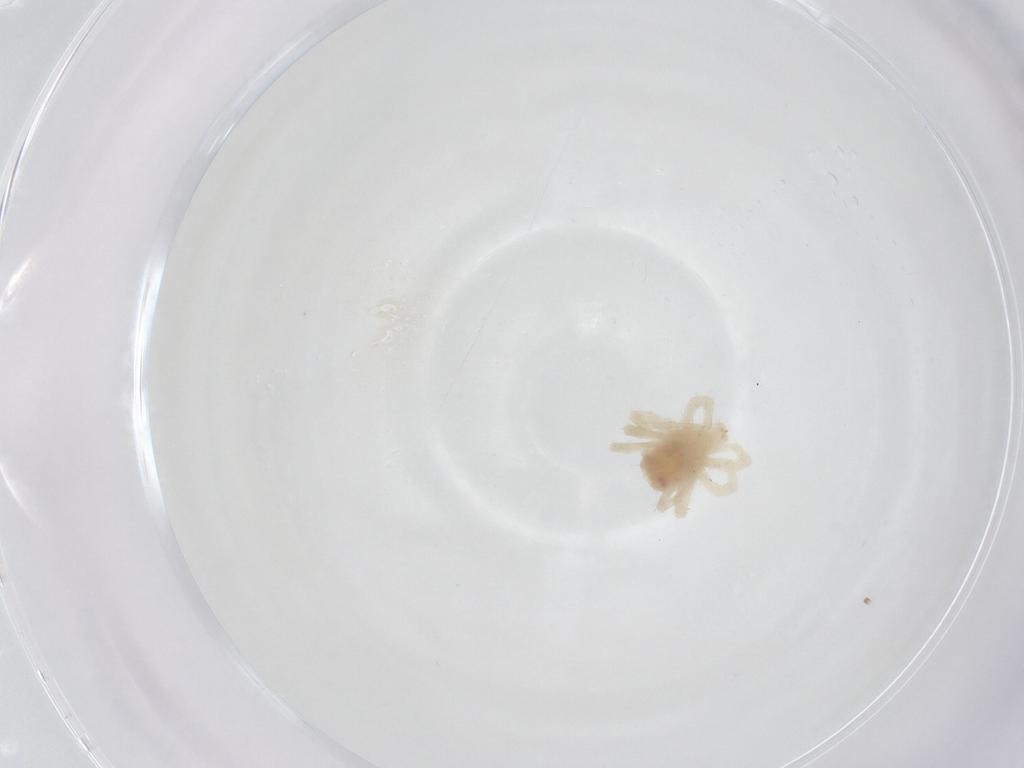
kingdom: Animalia
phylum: Arthropoda
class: Arachnida
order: Trombidiformes
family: Anystidae
